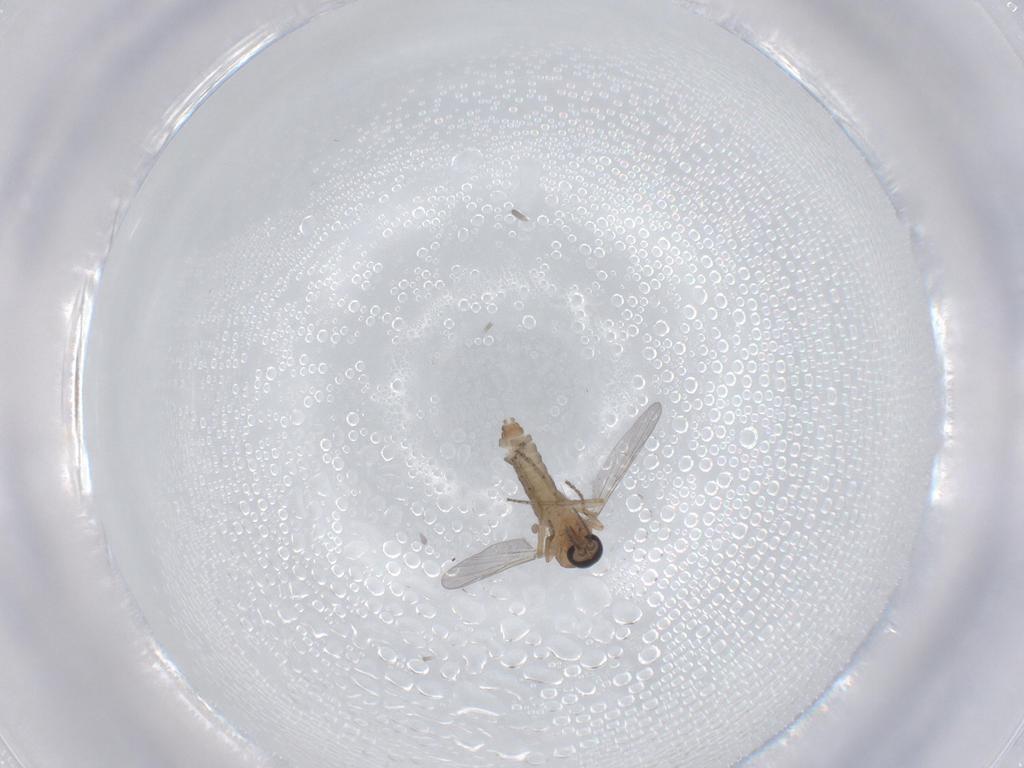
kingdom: Animalia
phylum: Arthropoda
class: Insecta
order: Diptera
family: Ceratopogonidae
